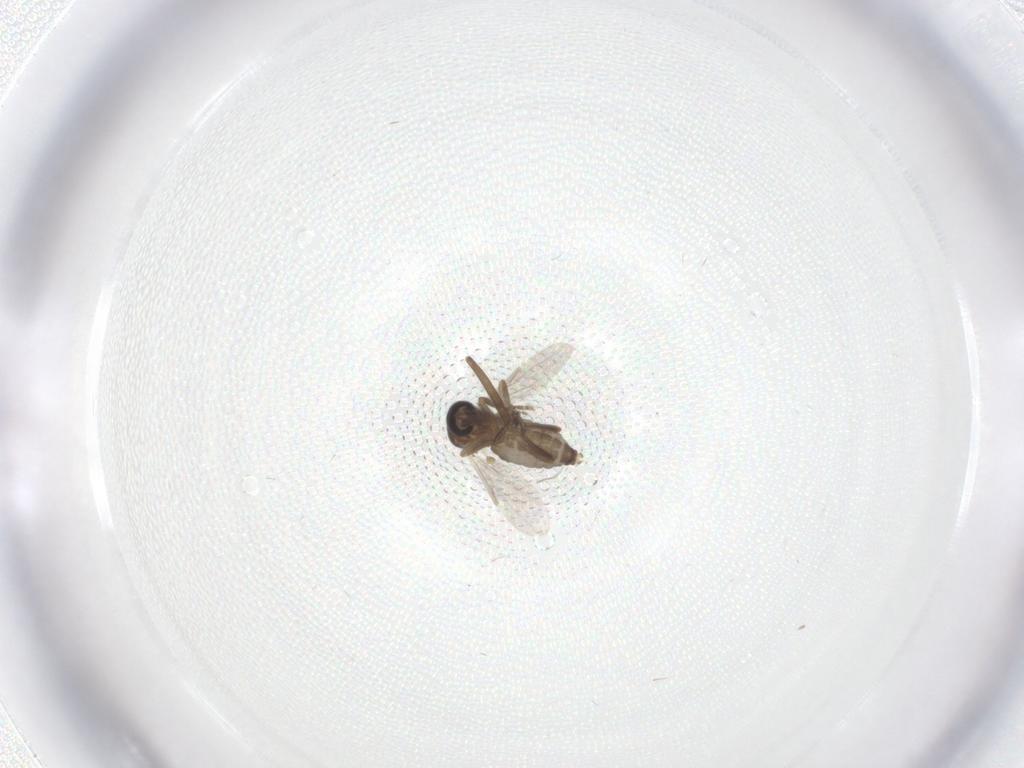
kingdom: Animalia
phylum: Arthropoda
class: Insecta
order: Diptera
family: Ceratopogonidae
